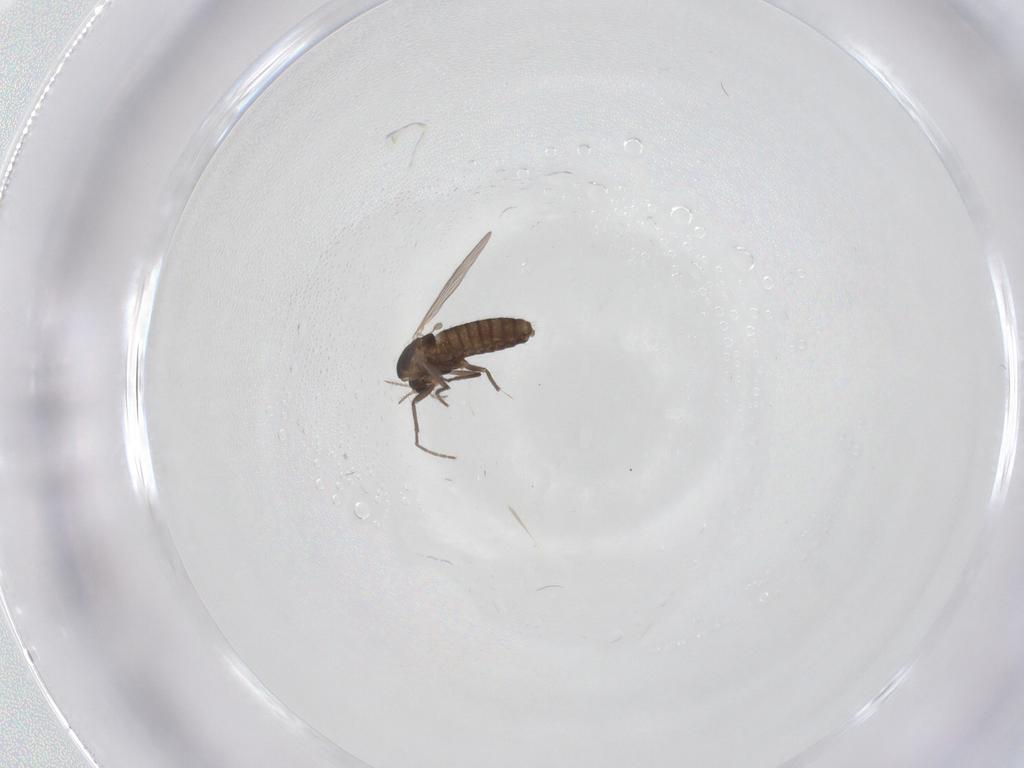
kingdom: Animalia
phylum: Arthropoda
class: Insecta
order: Diptera
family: Chironomidae
